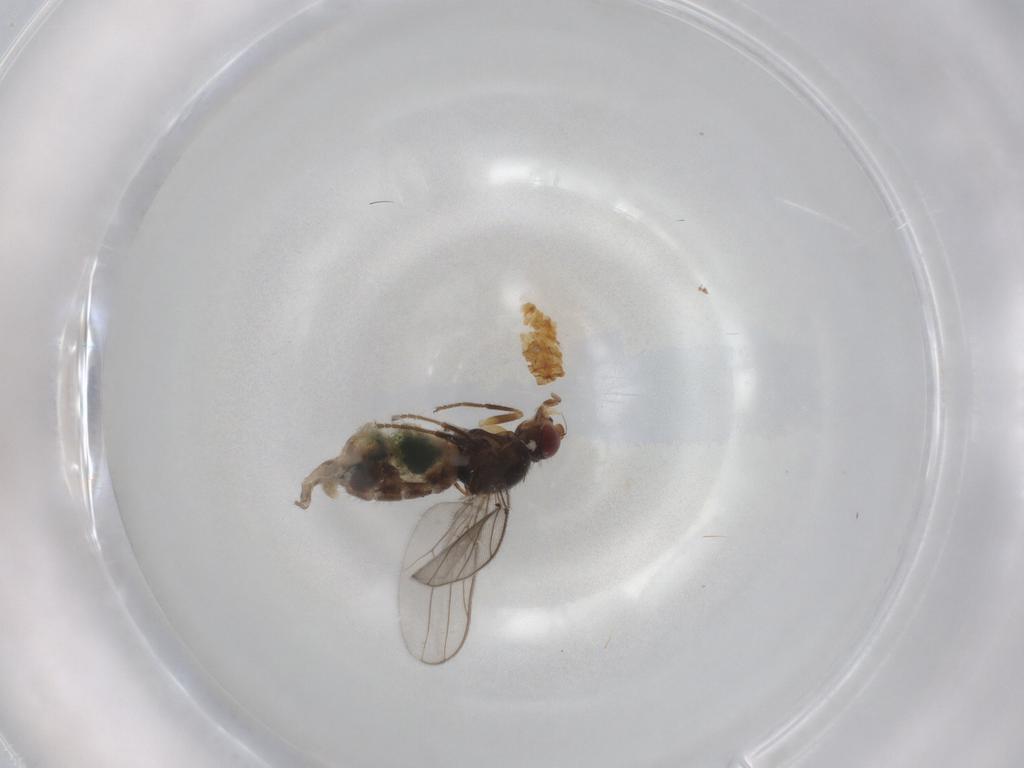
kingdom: Animalia
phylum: Arthropoda
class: Insecta
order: Diptera
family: Chloropidae
